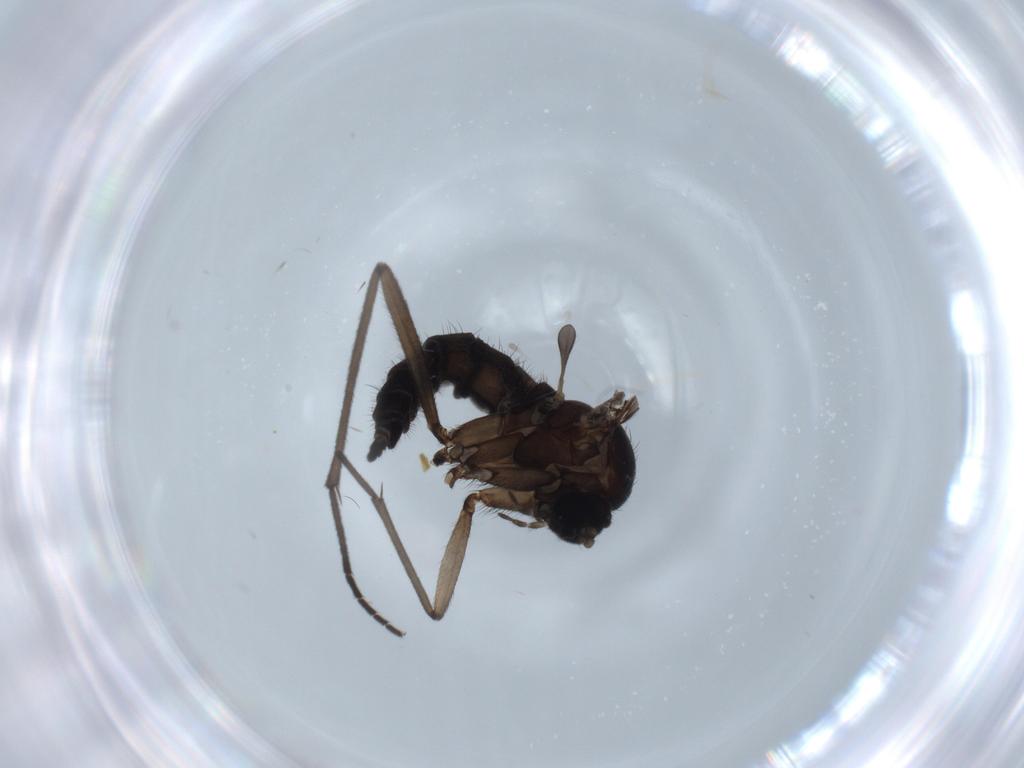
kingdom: Animalia
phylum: Arthropoda
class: Insecta
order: Diptera
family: Sciaridae
